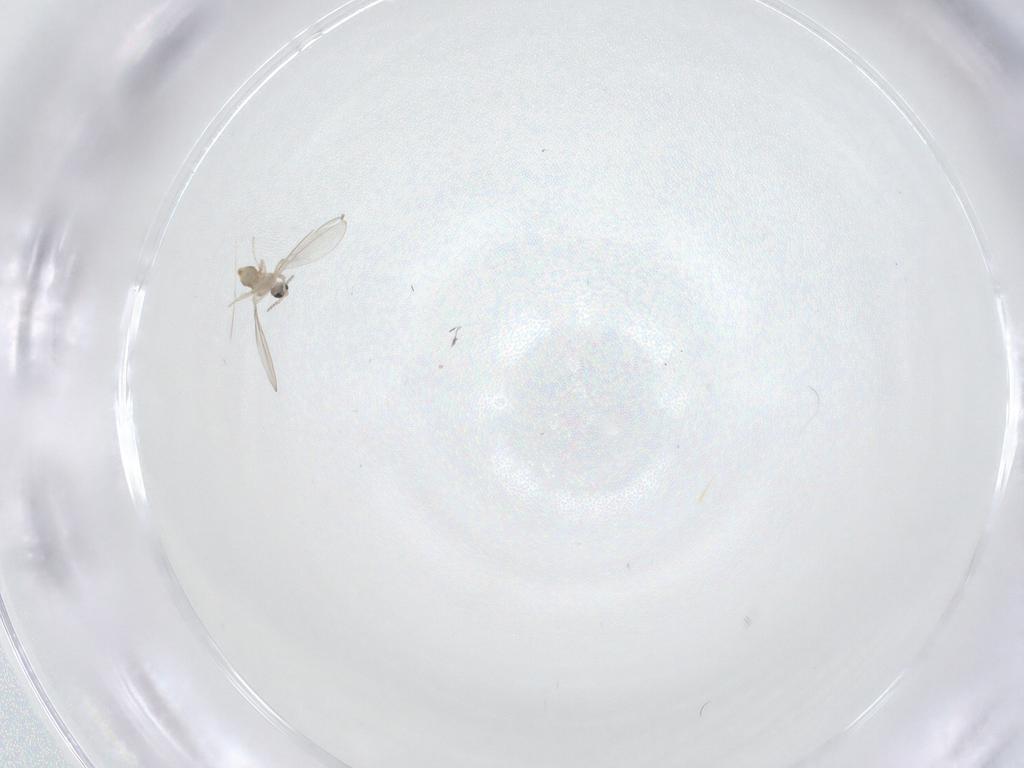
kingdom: Animalia
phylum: Arthropoda
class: Insecta
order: Diptera
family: Cecidomyiidae
